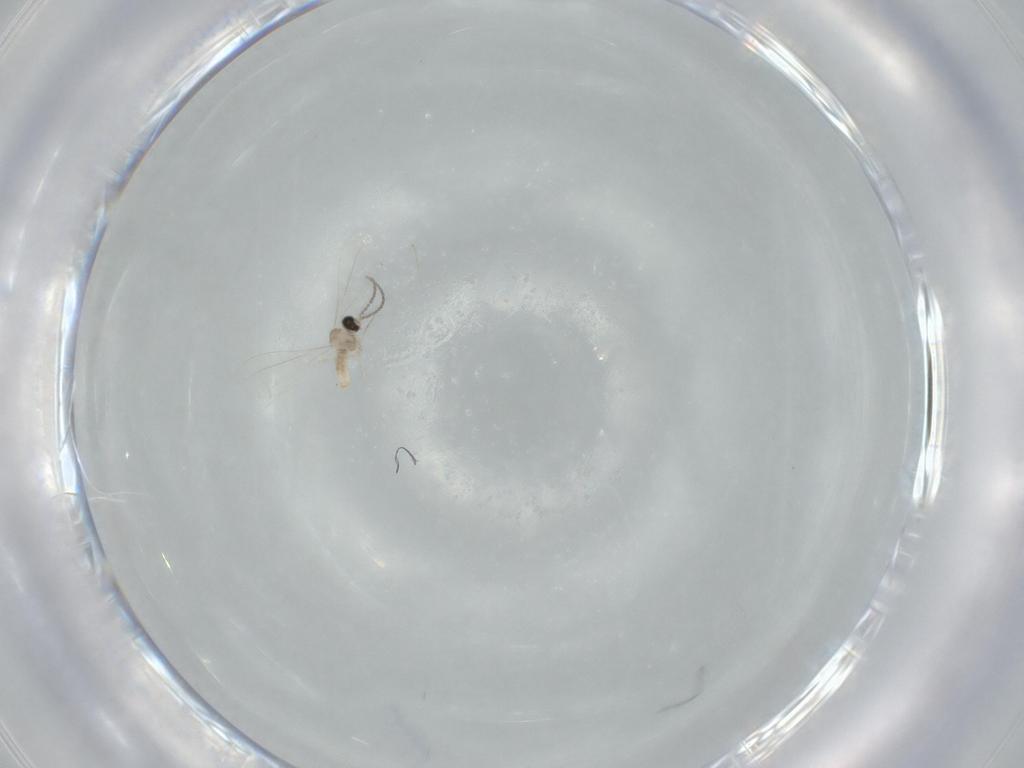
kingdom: Animalia
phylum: Arthropoda
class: Insecta
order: Diptera
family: Cecidomyiidae
